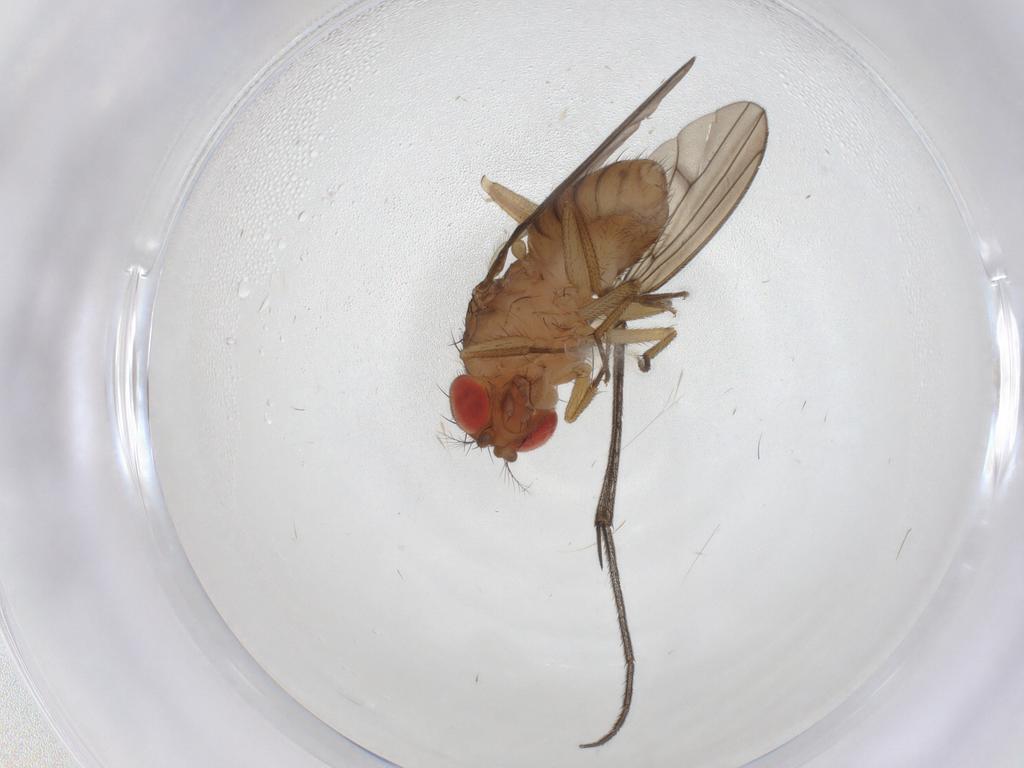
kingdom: Animalia
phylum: Arthropoda
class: Insecta
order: Diptera
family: Drosophilidae
